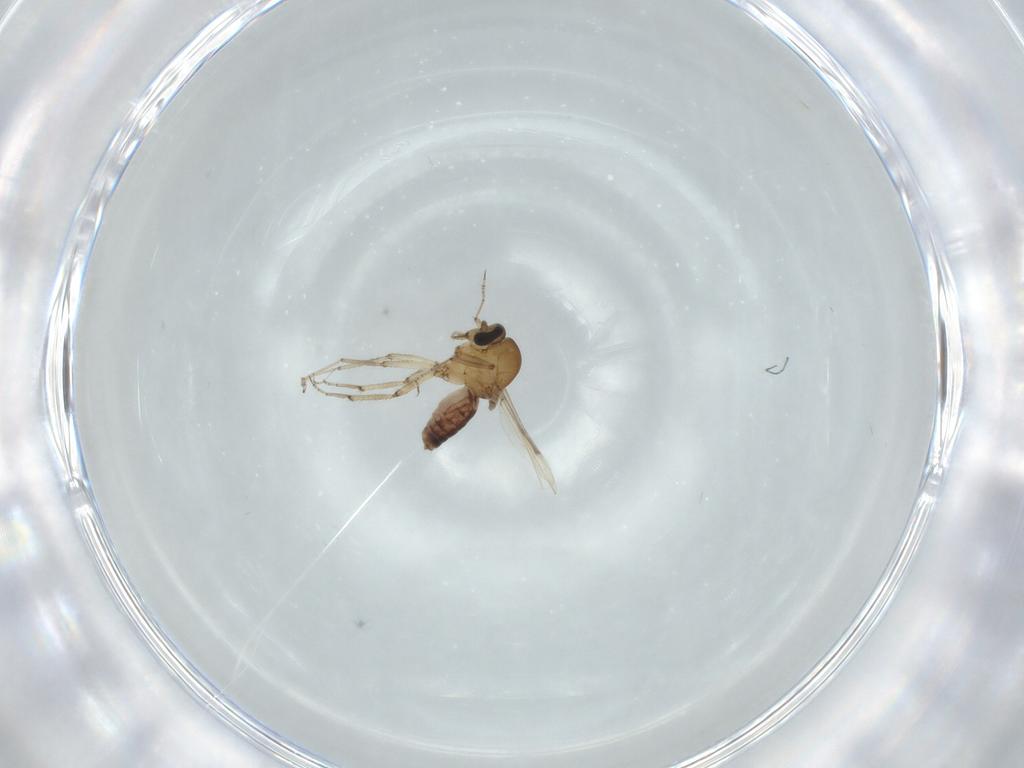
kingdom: Animalia
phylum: Arthropoda
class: Insecta
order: Diptera
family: Ceratopogonidae
